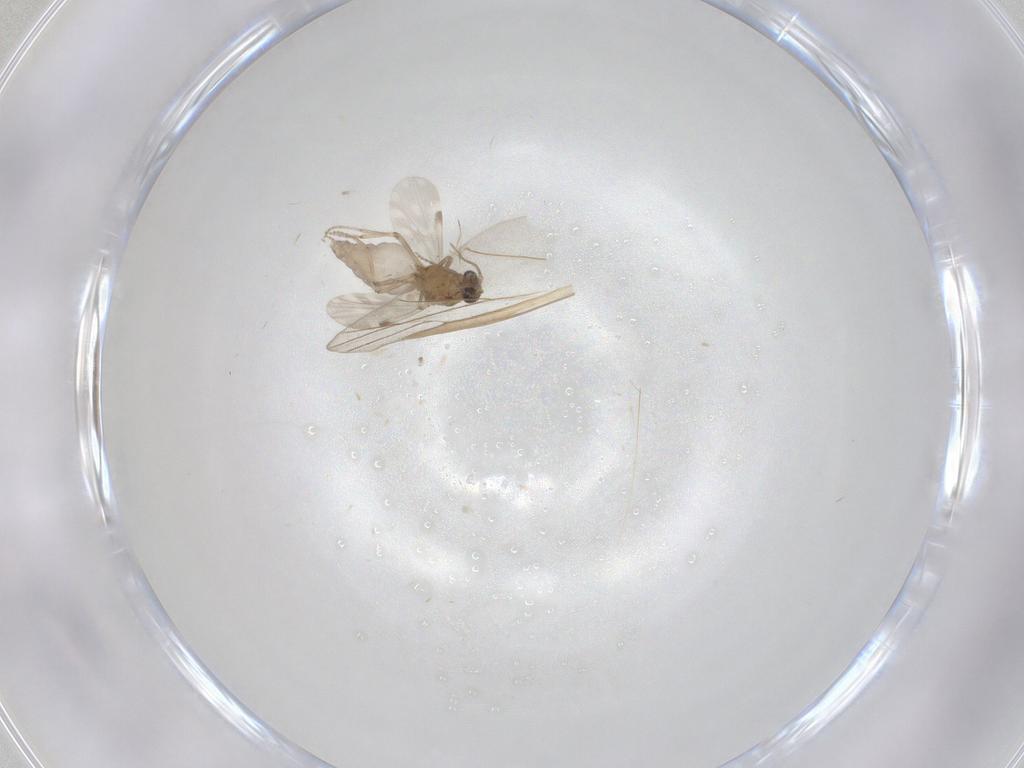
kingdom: Animalia
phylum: Arthropoda
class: Insecta
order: Diptera
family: Ceratopogonidae
